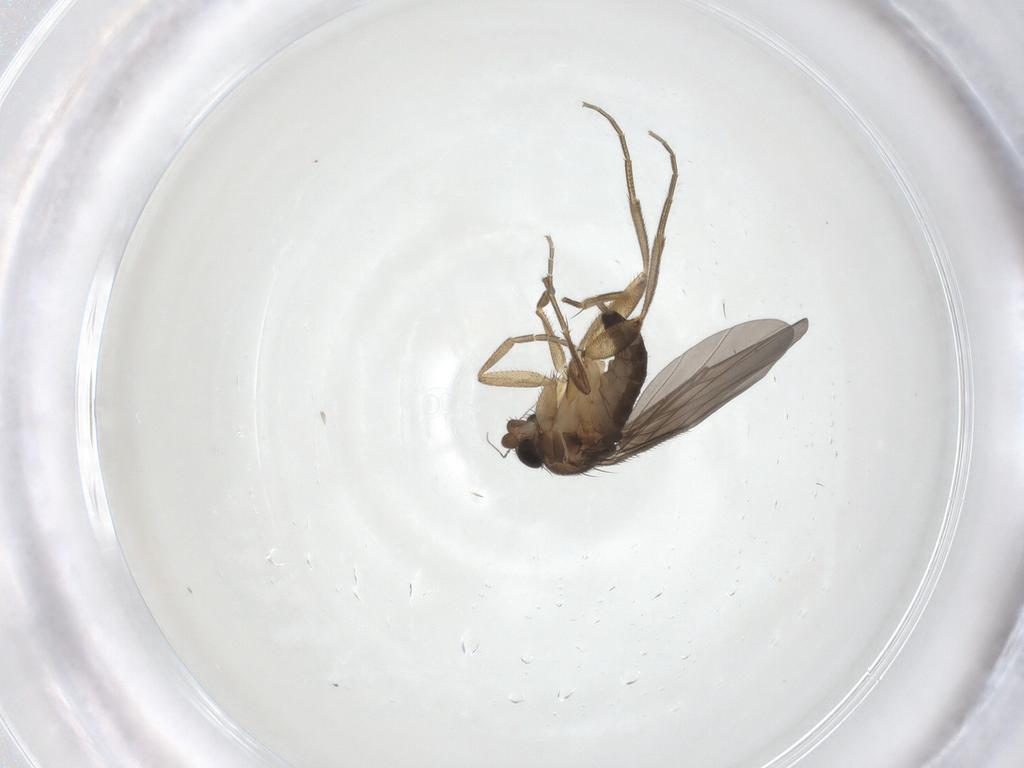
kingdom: Animalia
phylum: Arthropoda
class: Insecta
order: Diptera
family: Mycetophilidae
